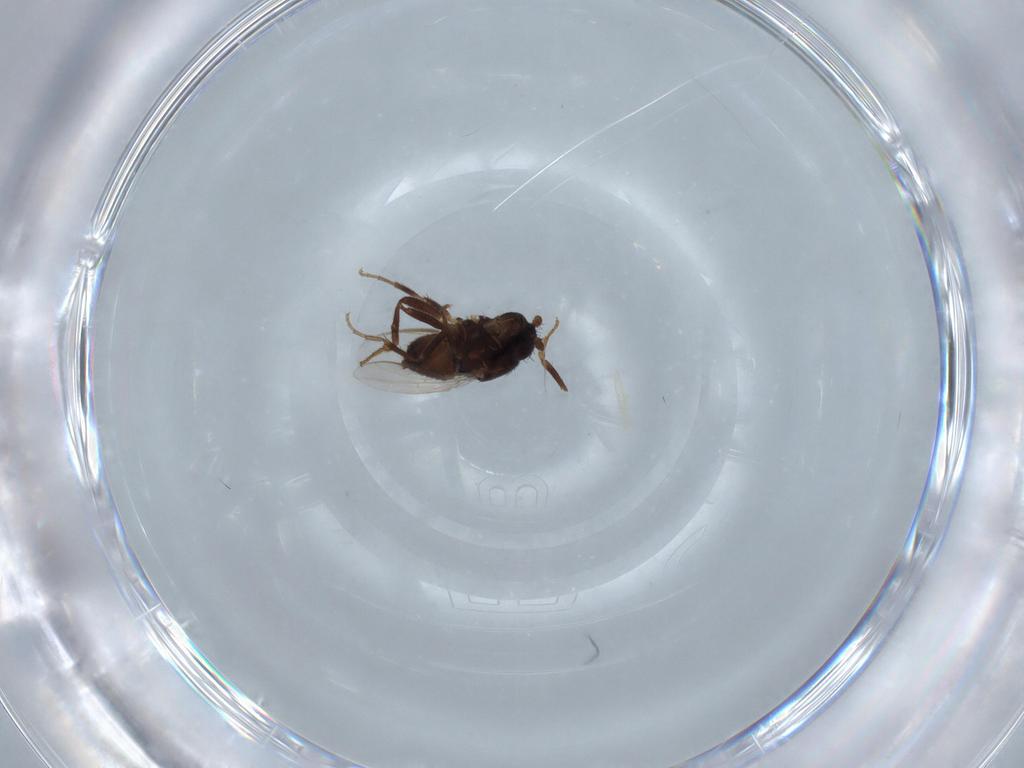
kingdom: Animalia
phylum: Arthropoda
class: Insecta
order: Diptera
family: Sphaeroceridae
